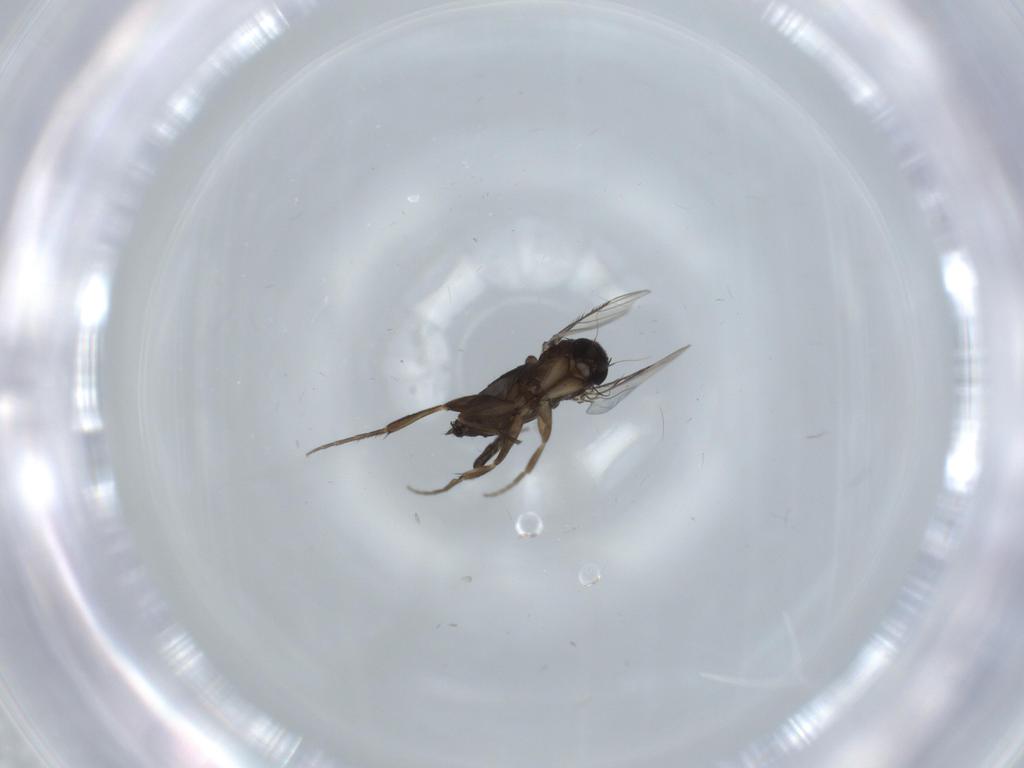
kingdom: Animalia
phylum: Arthropoda
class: Insecta
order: Diptera
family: Phoridae
